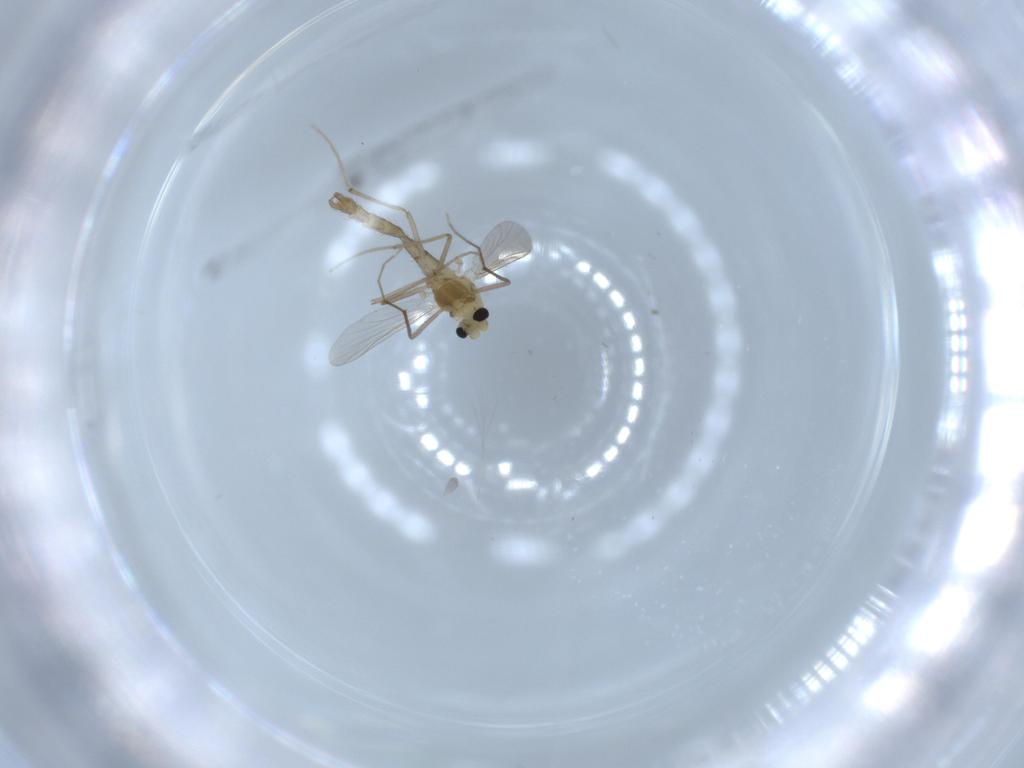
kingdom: Animalia
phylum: Arthropoda
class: Insecta
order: Diptera
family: Chironomidae
